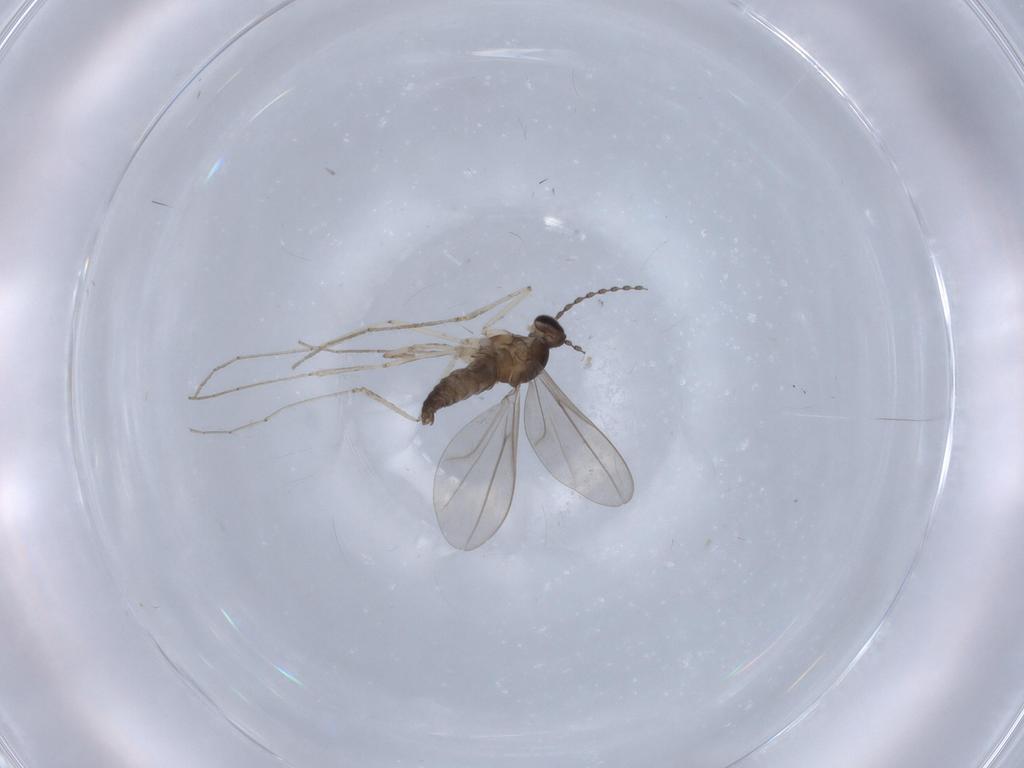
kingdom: Animalia
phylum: Arthropoda
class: Insecta
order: Diptera
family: Cecidomyiidae
